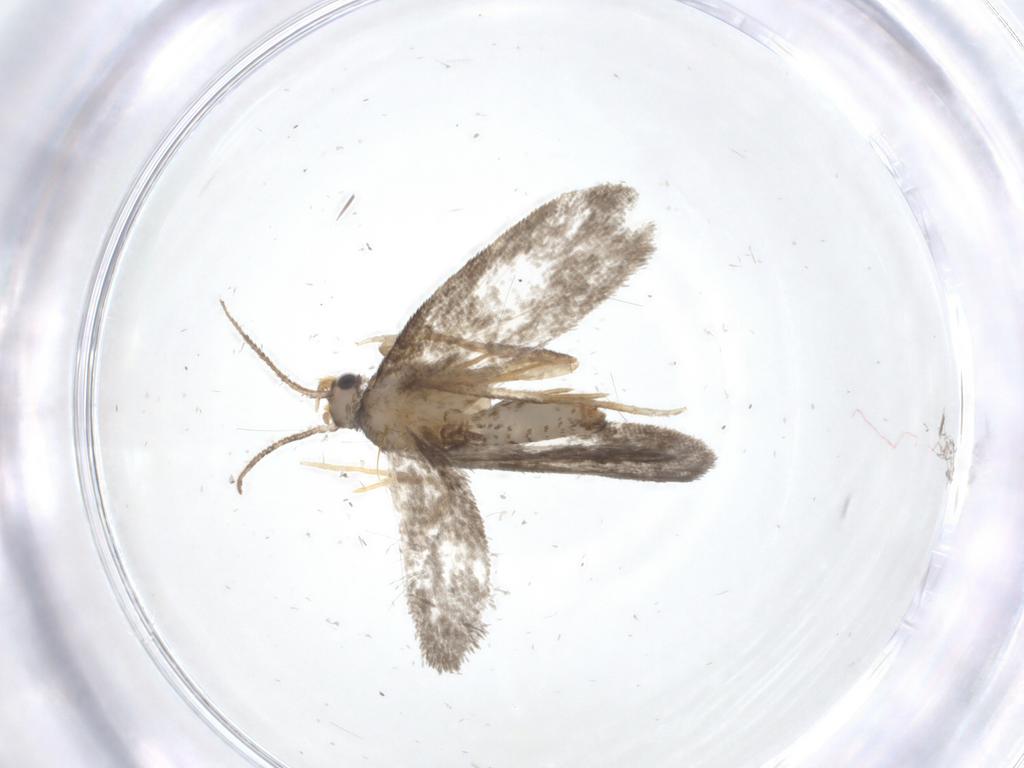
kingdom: Animalia
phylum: Arthropoda
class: Insecta
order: Lepidoptera
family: Psychidae
